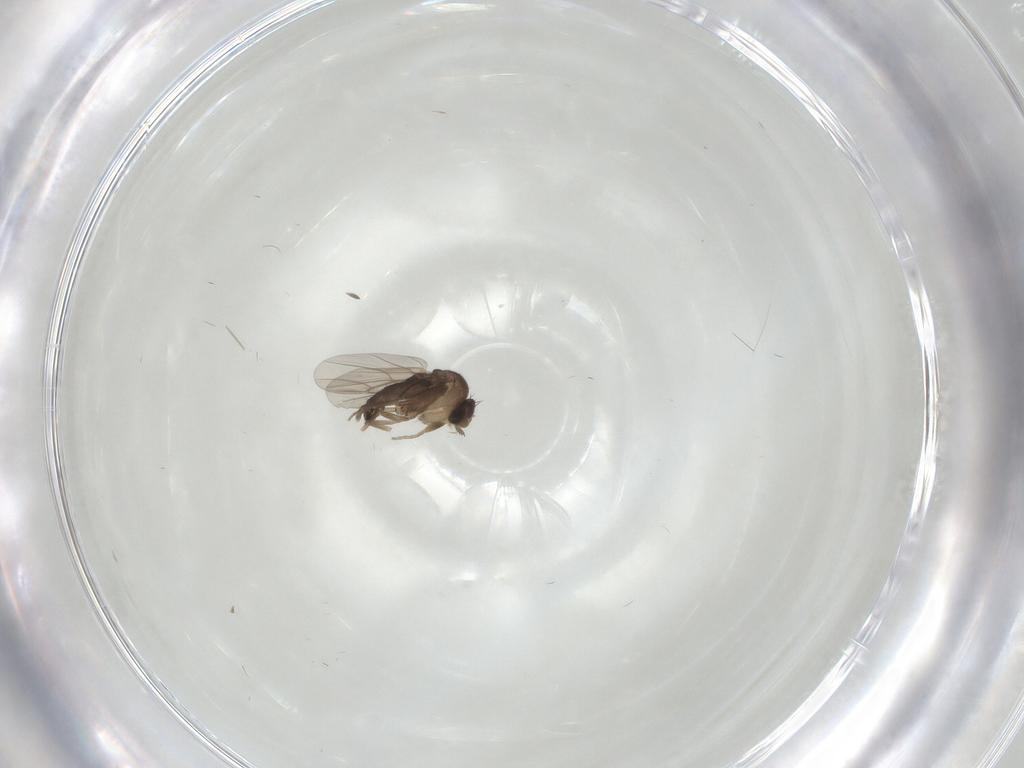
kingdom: Animalia
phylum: Arthropoda
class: Insecta
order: Diptera
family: Phoridae
